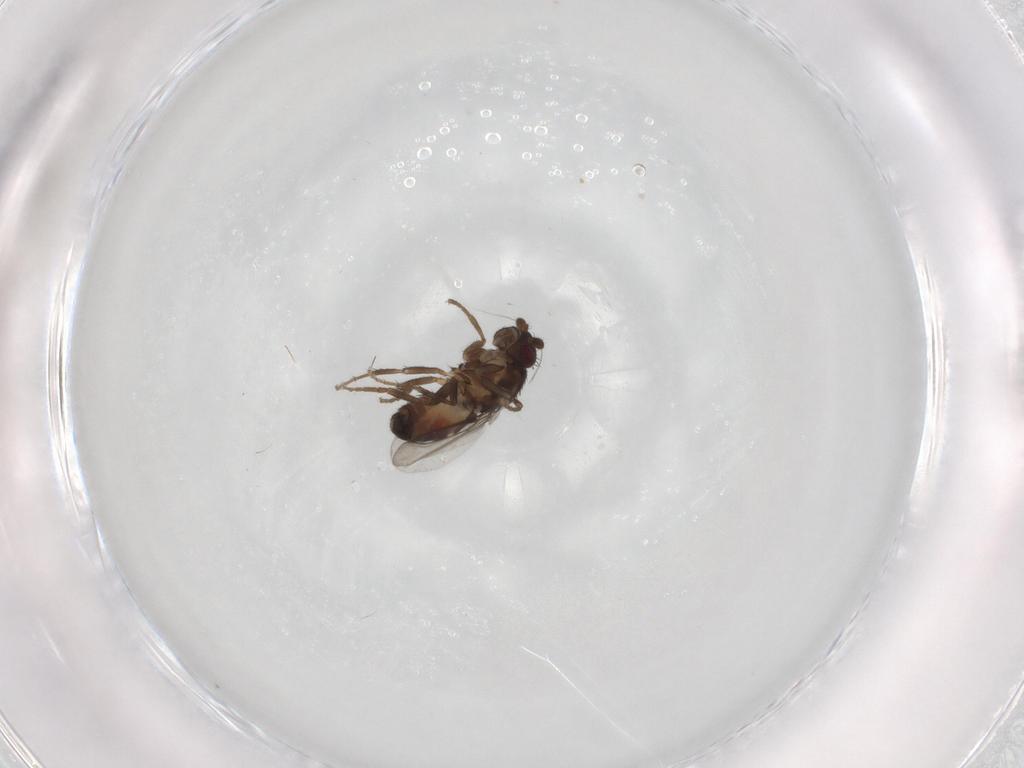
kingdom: Animalia
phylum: Arthropoda
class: Insecta
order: Diptera
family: Sphaeroceridae
